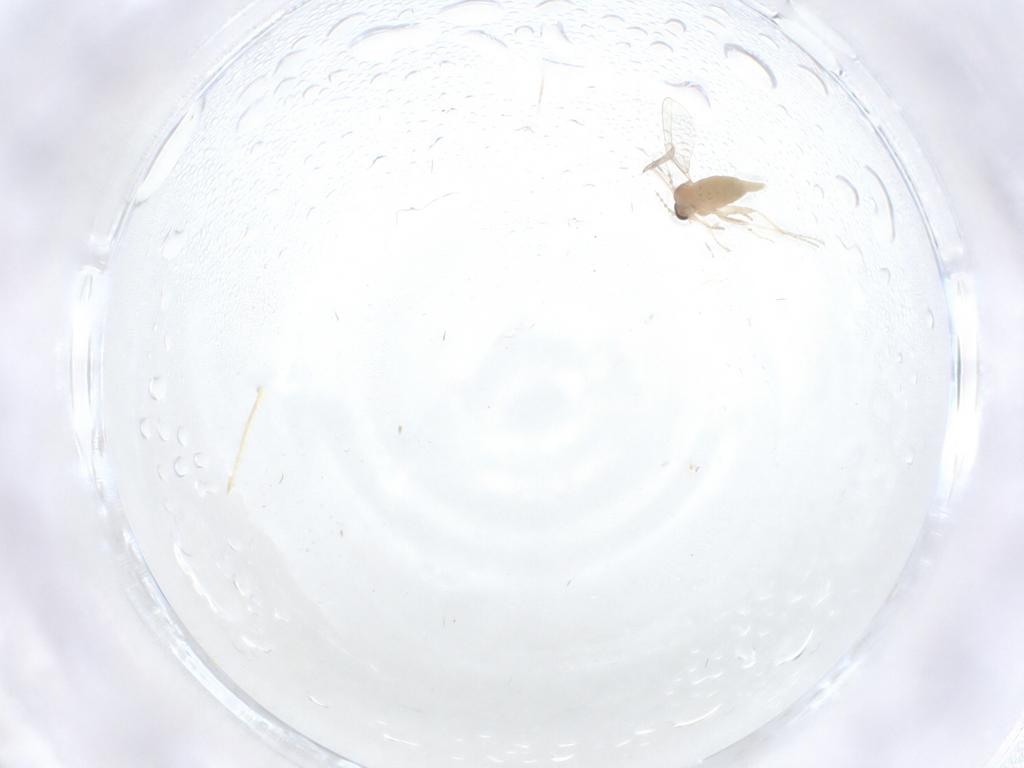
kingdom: Animalia
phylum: Arthropoda
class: Insecta
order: Diptera
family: Cecidomyiidae
